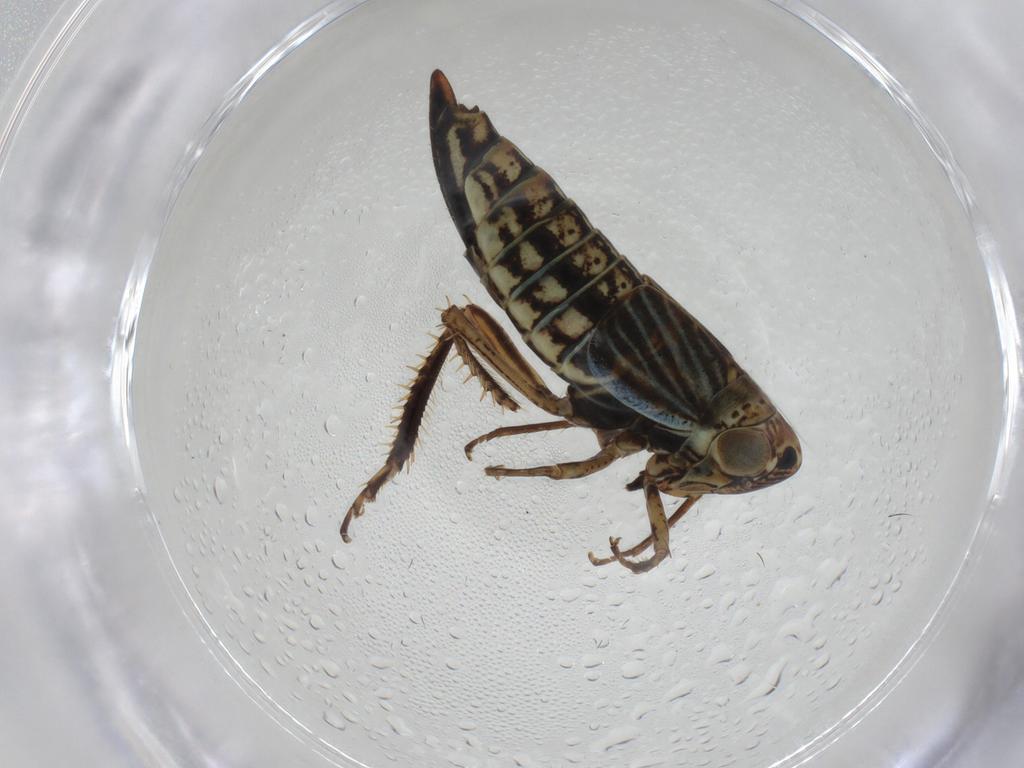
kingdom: Animalia
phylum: Arthropoda
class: Insecta
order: Hemiptera
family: Cicadellidae
